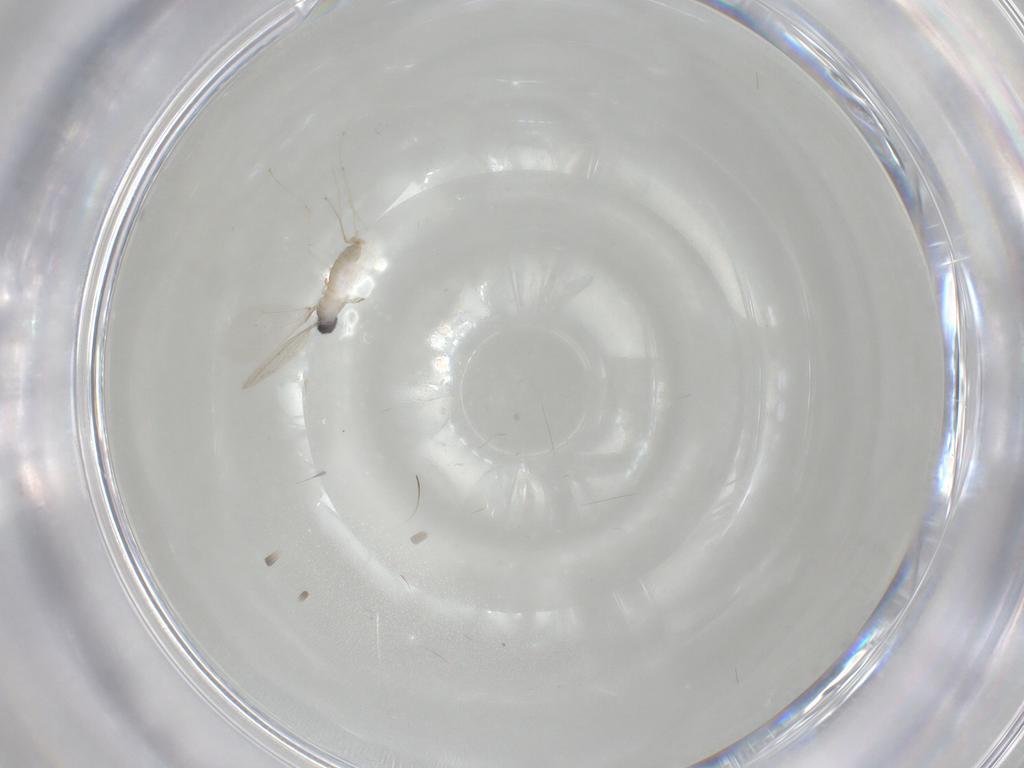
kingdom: Animalia
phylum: Arthropoda
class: Insecta
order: Diptera
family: Cecidomyiidae
